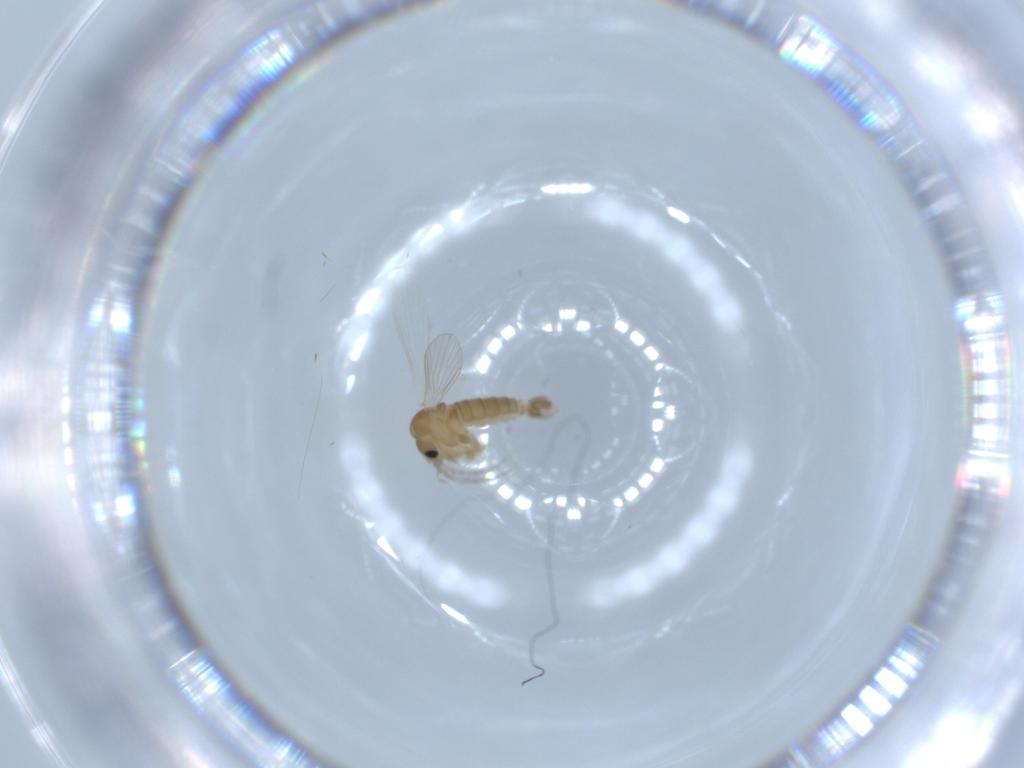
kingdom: Animalia
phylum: Arthropoda
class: Insecta
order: Diptera
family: Psychodidae
